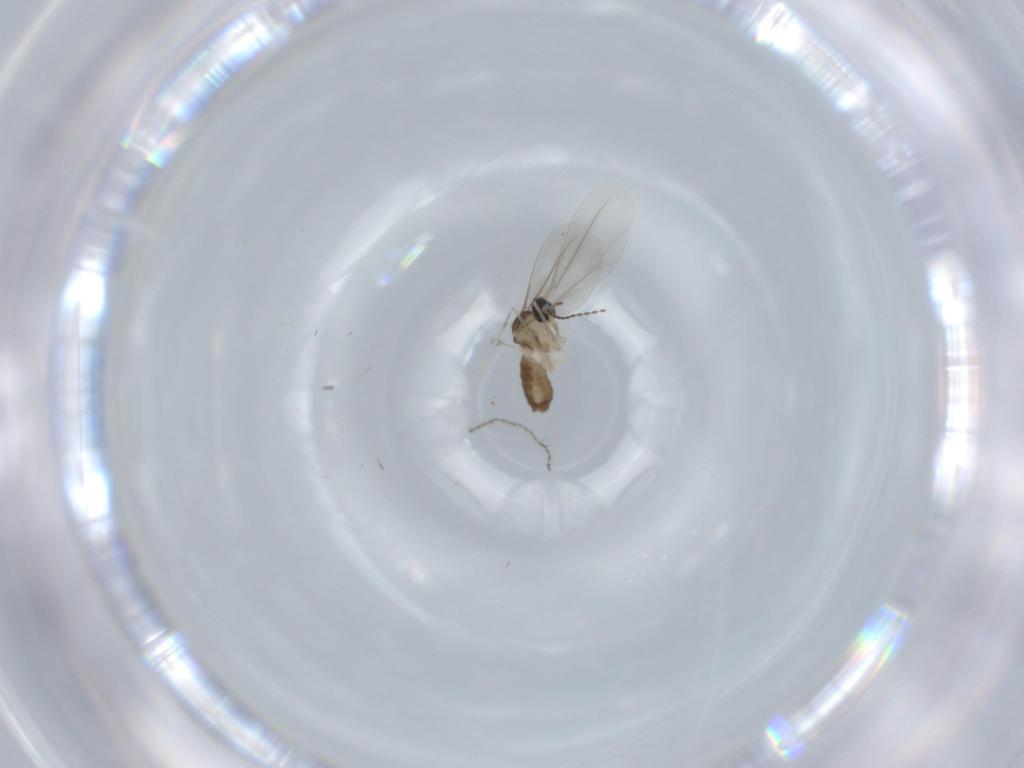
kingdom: Animalia
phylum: Arthropoda
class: Insecta
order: Diptera
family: Cecidomyiidae
